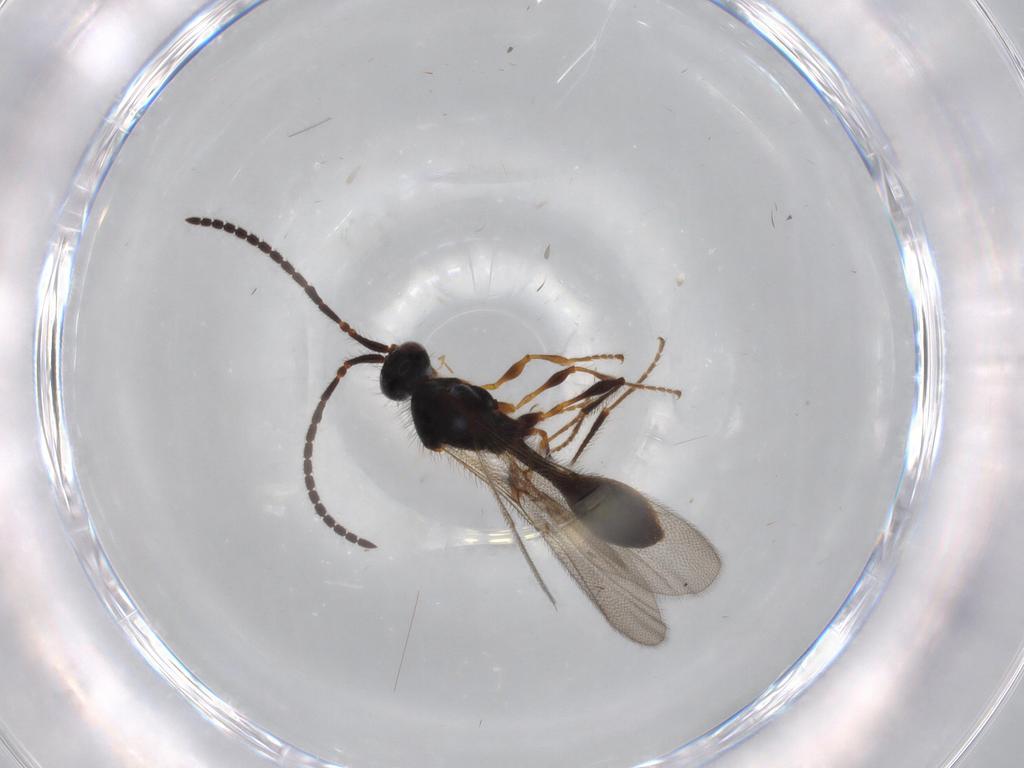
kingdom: Animalia
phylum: Arthropoda
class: Insecta
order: Hymenoptera
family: Diapriidae
